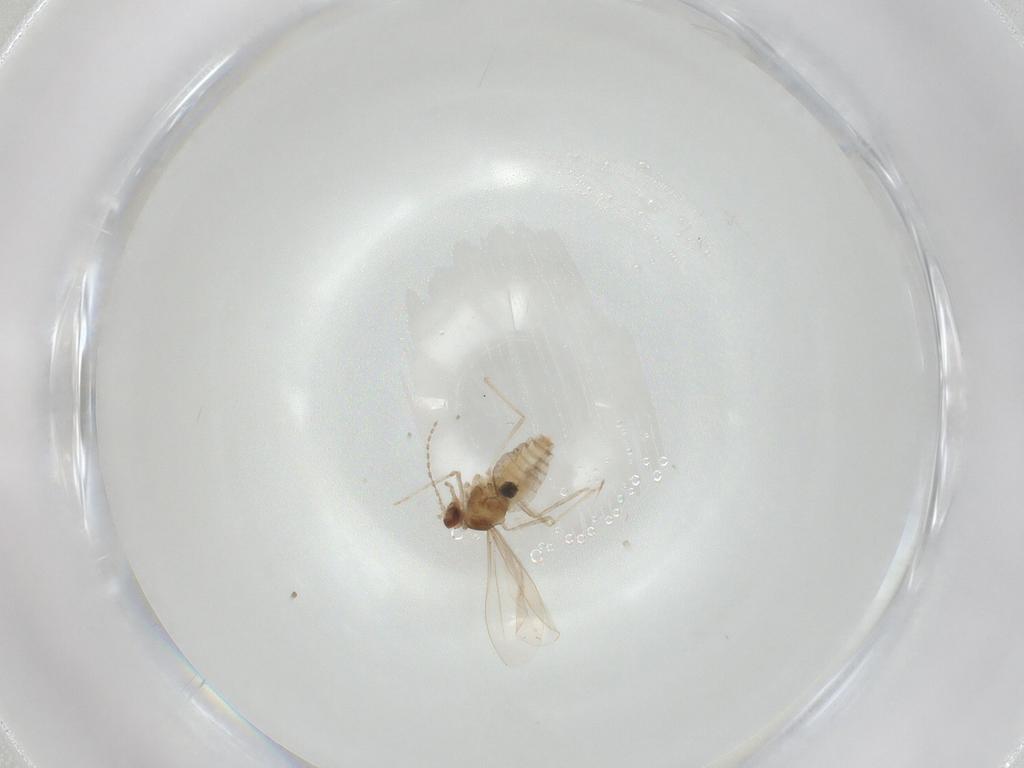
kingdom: Animalia
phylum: Arthropoda
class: Insecta
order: Diptera
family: Cecidomyiidae
